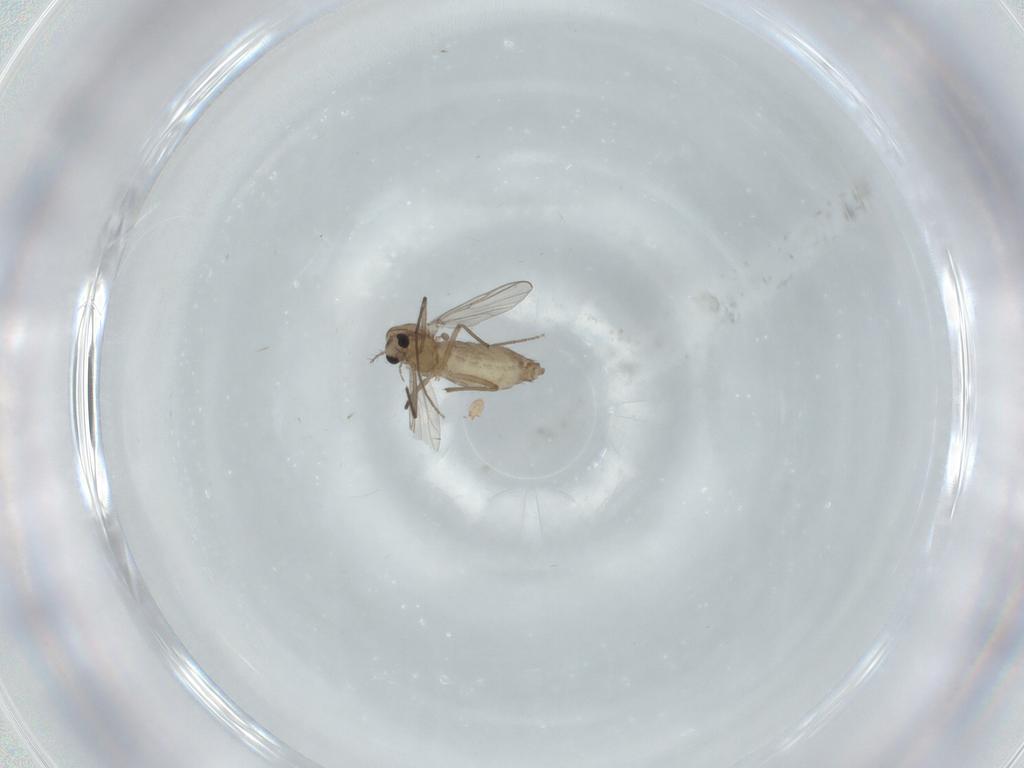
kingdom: Animalia
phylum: Arthropoda
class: Insecta
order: Diptera
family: Chironomidae
